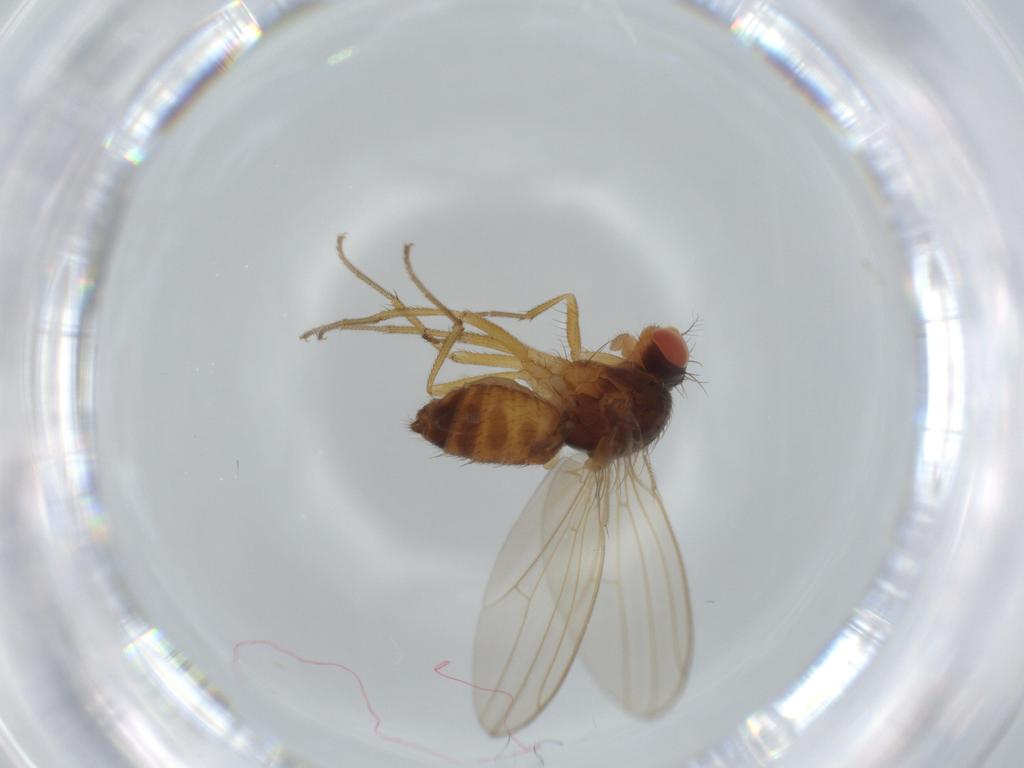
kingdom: Animalia
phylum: Arthropoda
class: Insecta
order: Diptera
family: Drosophilidae
